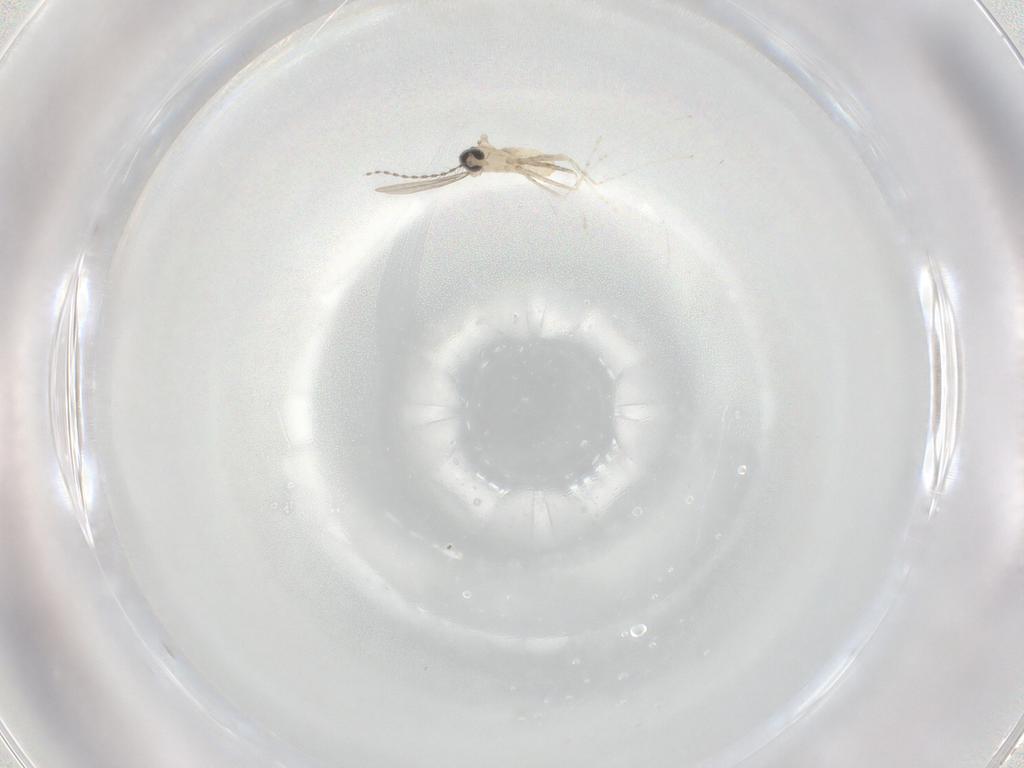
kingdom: Animalia
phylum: Arthropoda
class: Insecta
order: Diptera
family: Cecidomyiidae
